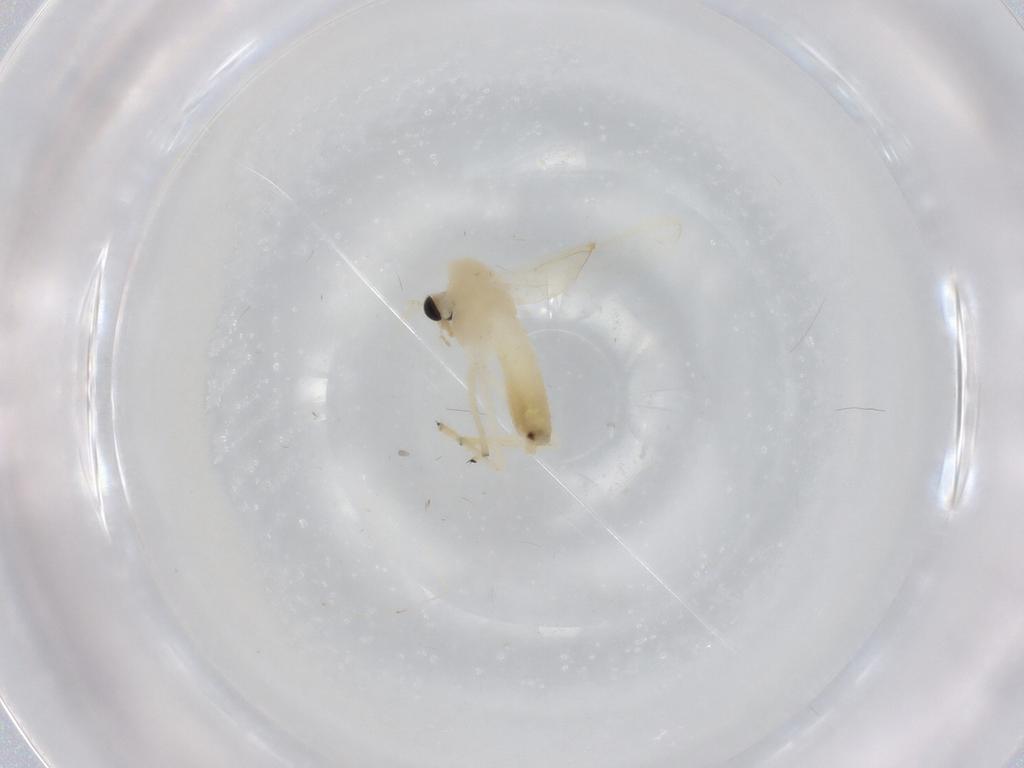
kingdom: Animalia
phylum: Arthropoda
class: Insecta
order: Diptera
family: Chironomidae
